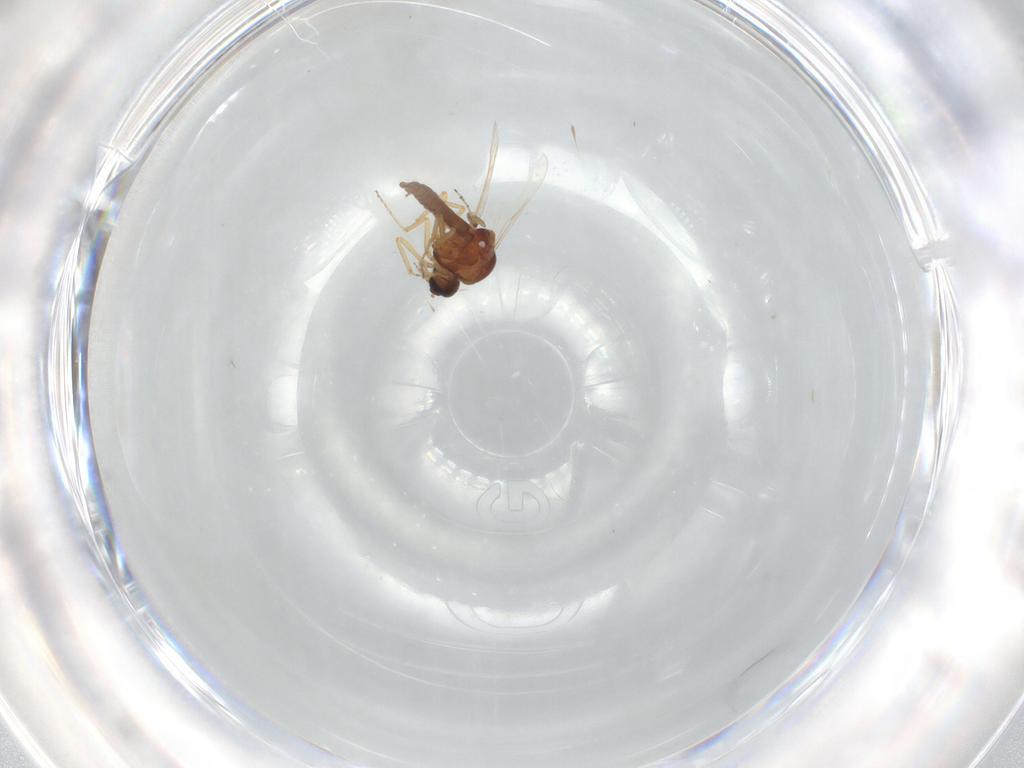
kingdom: Animalia
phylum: Arthropoda
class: Insecta
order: Diptera
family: Ceratopogonidae
